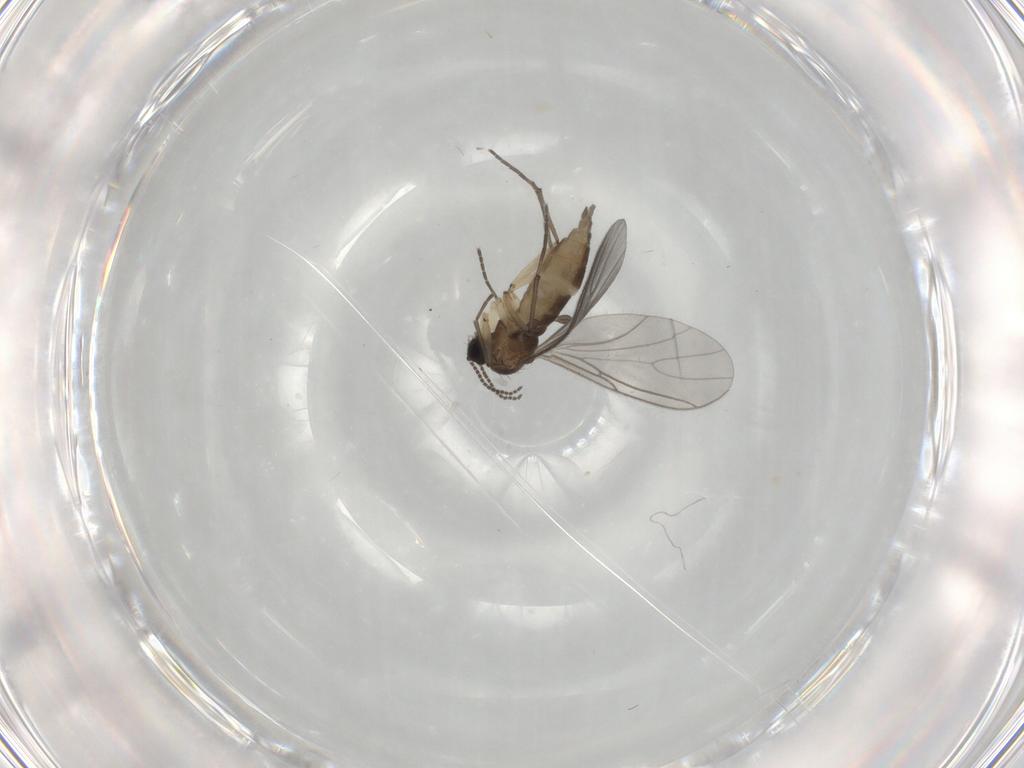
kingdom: Animalia
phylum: Arthropoda
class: Insecta
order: Diptera
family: Sciaridae
